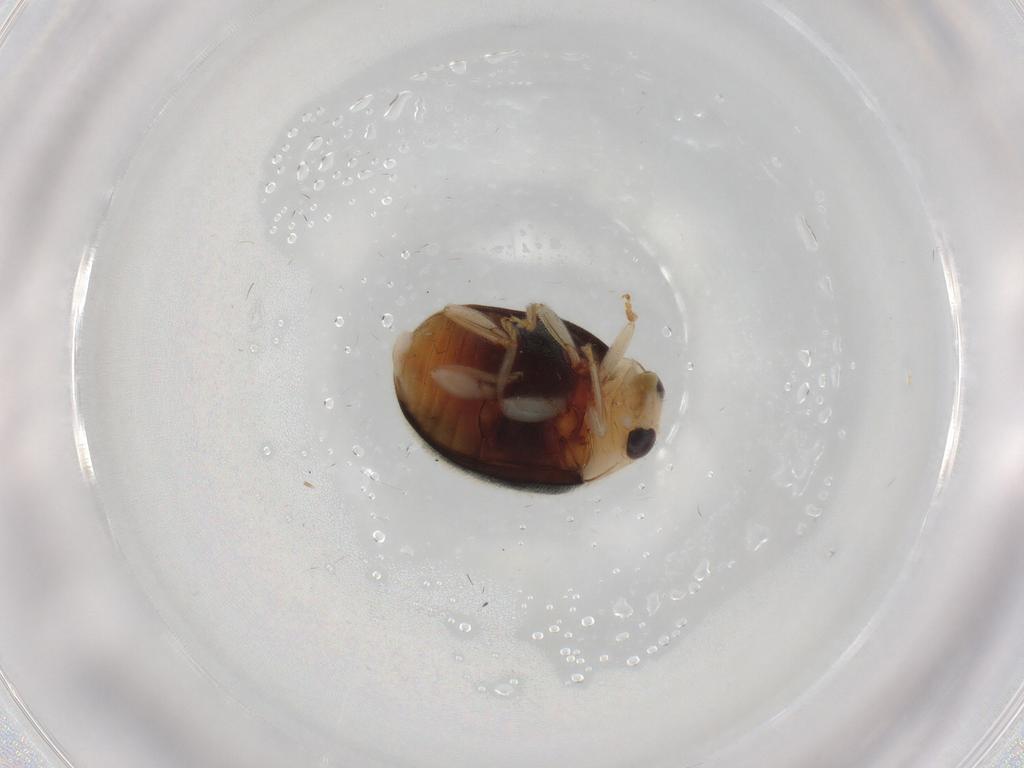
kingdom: Animalia
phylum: Arthropoda
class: Insecta
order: Coleoptera
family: Coccinellidae
